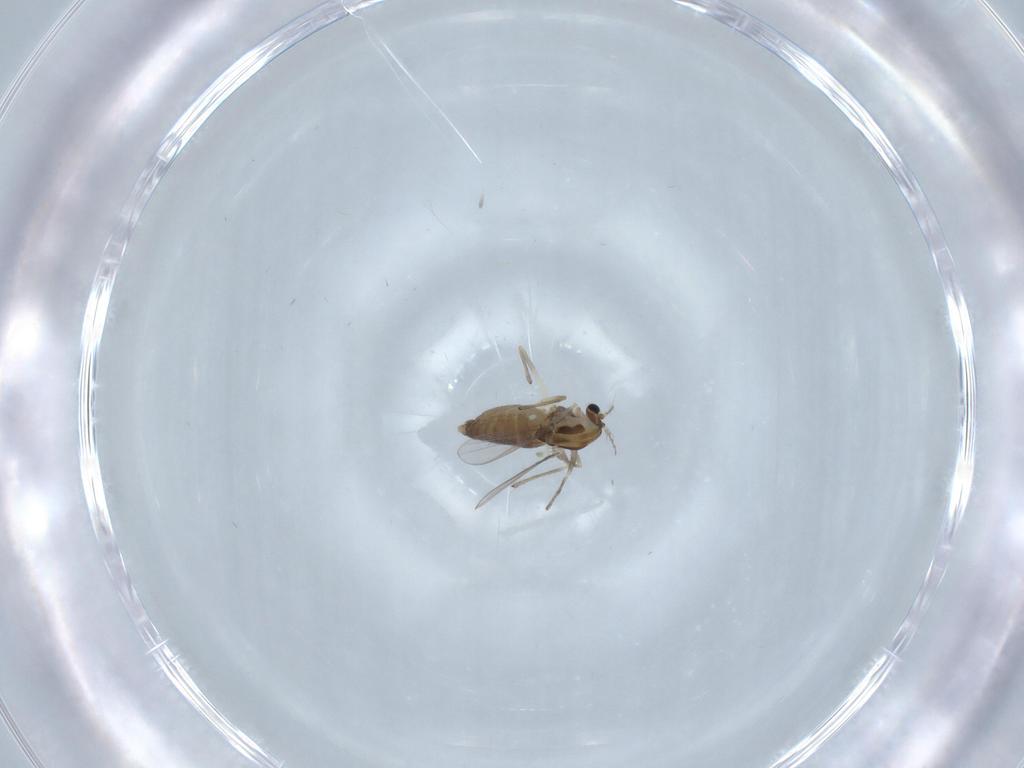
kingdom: Animalia
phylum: Arthropoda
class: Insecta
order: Diptera
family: Chironomidae
